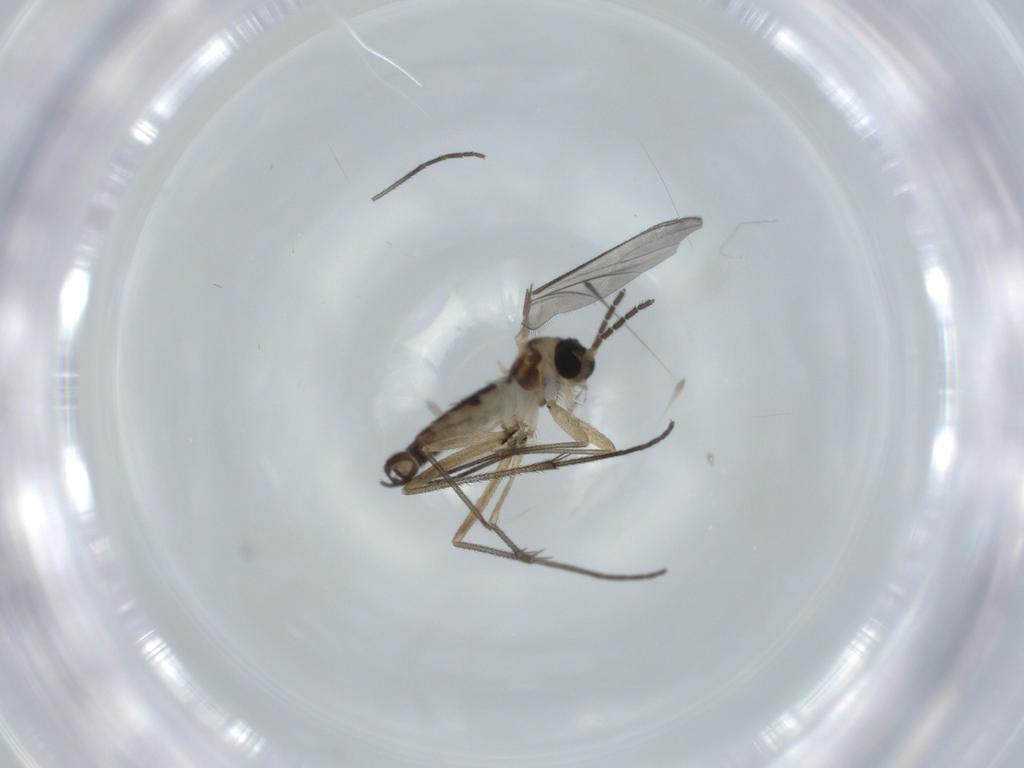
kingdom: Animalia
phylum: Arthropoda
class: Insecta
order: Diptera
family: Sciaridae
